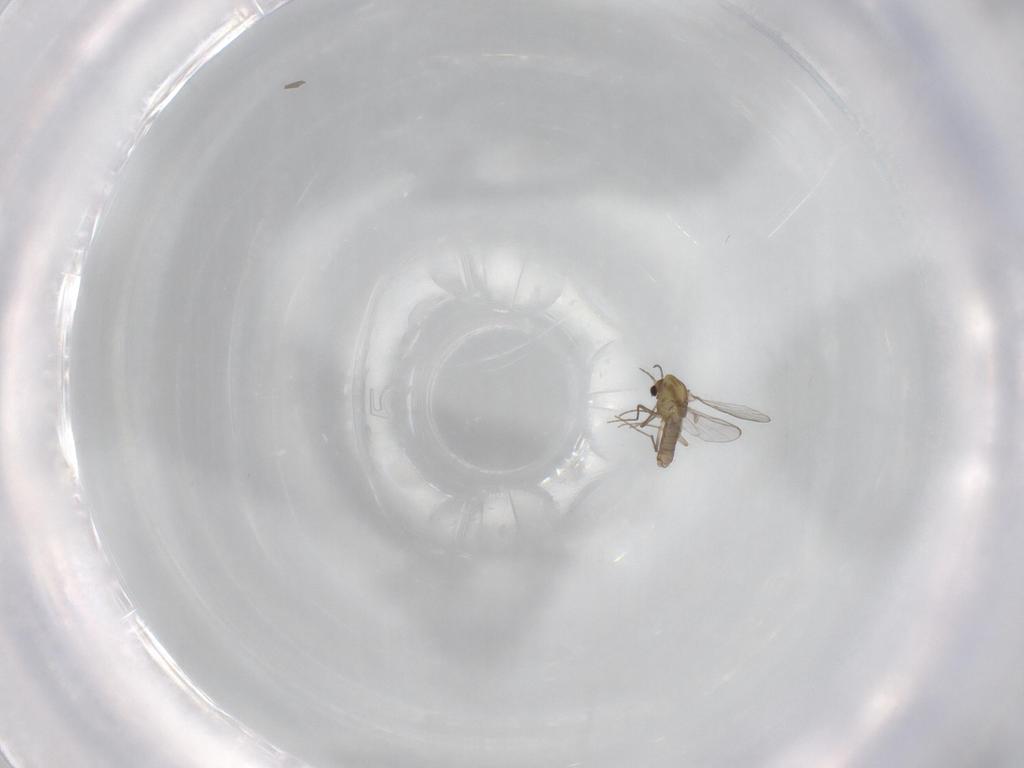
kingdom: Animalia
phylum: Arthropoda
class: Insecta
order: Diptera
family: Chironomidae
